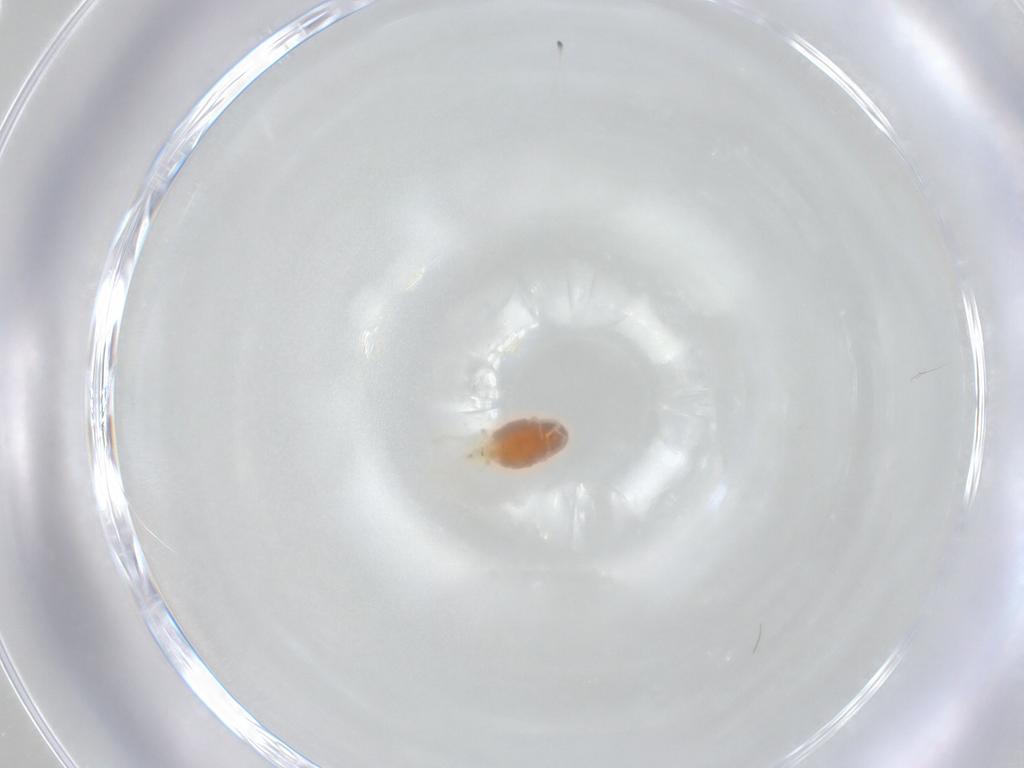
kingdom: Animalia
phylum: Arthropoda
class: Arachnida
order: Trombidiformes
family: Erythraeidae
